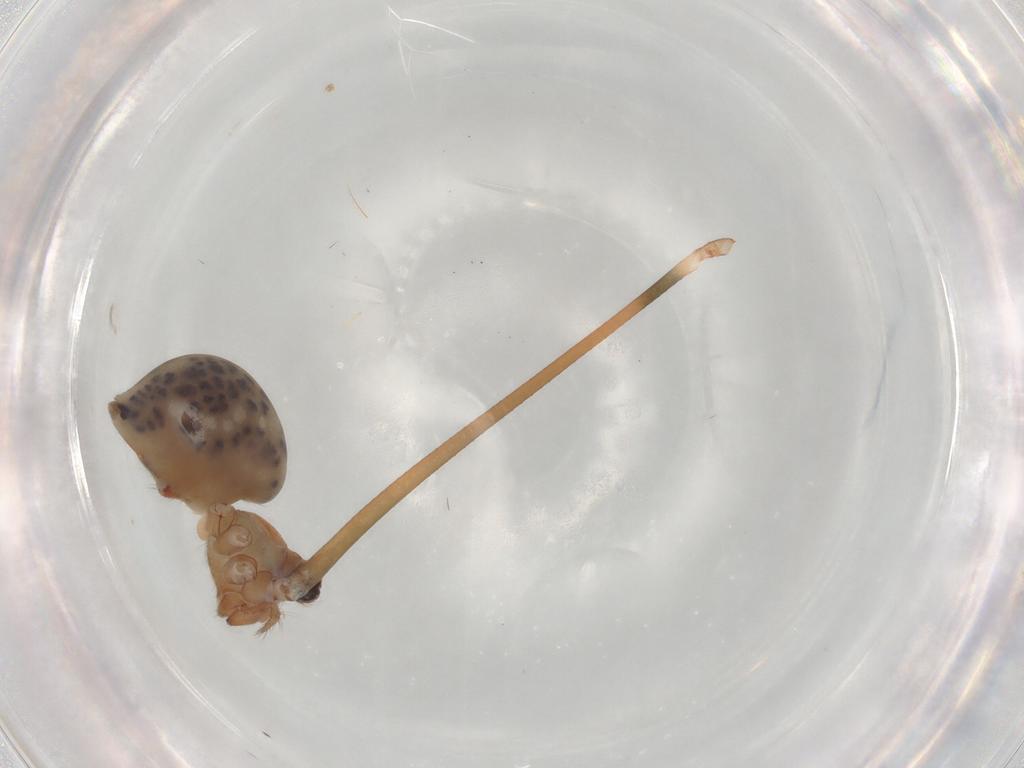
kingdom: Animalia
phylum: Arthropoda
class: Arachnida
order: Araneae
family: Pholcidae
